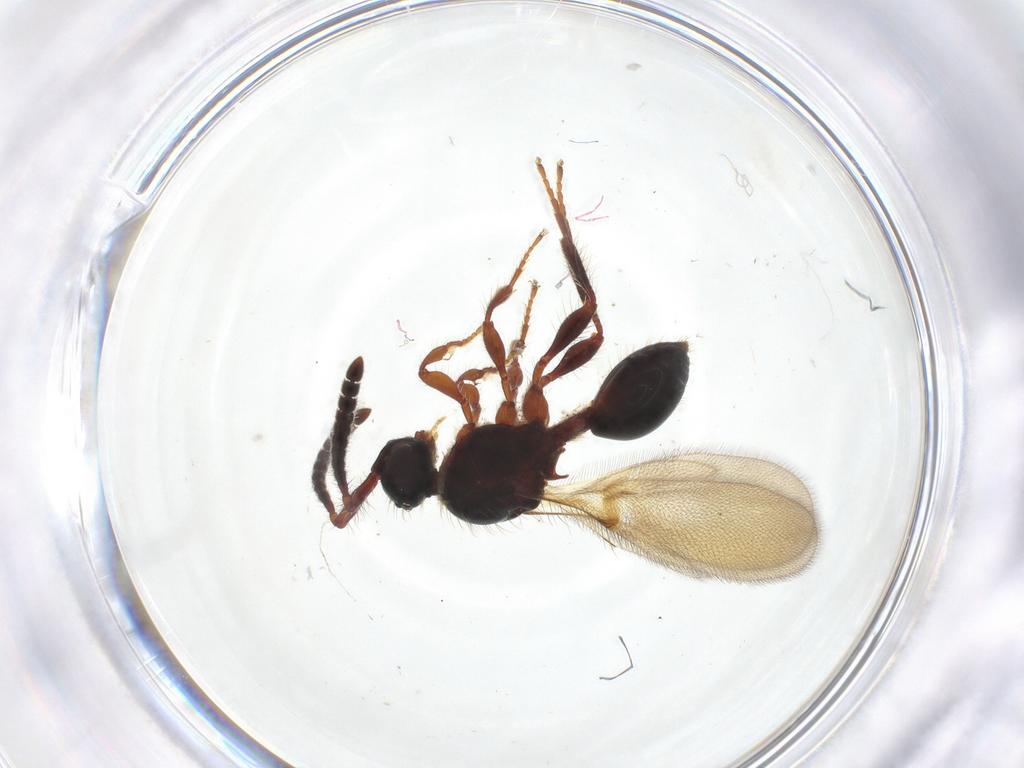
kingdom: Animalia
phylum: Arthropoda
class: Insecta
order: Hymenoptera
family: Diapriidae
